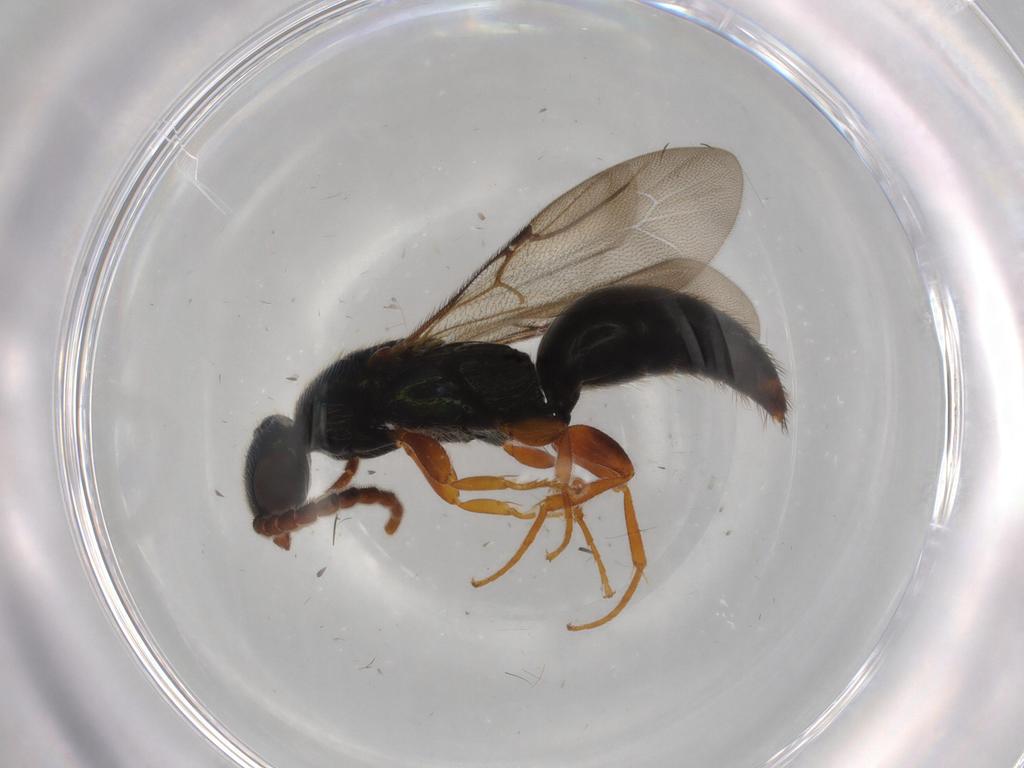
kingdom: Animalia
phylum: Arthropoda
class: Insecta
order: Hymenoptera
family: Bethylidae
